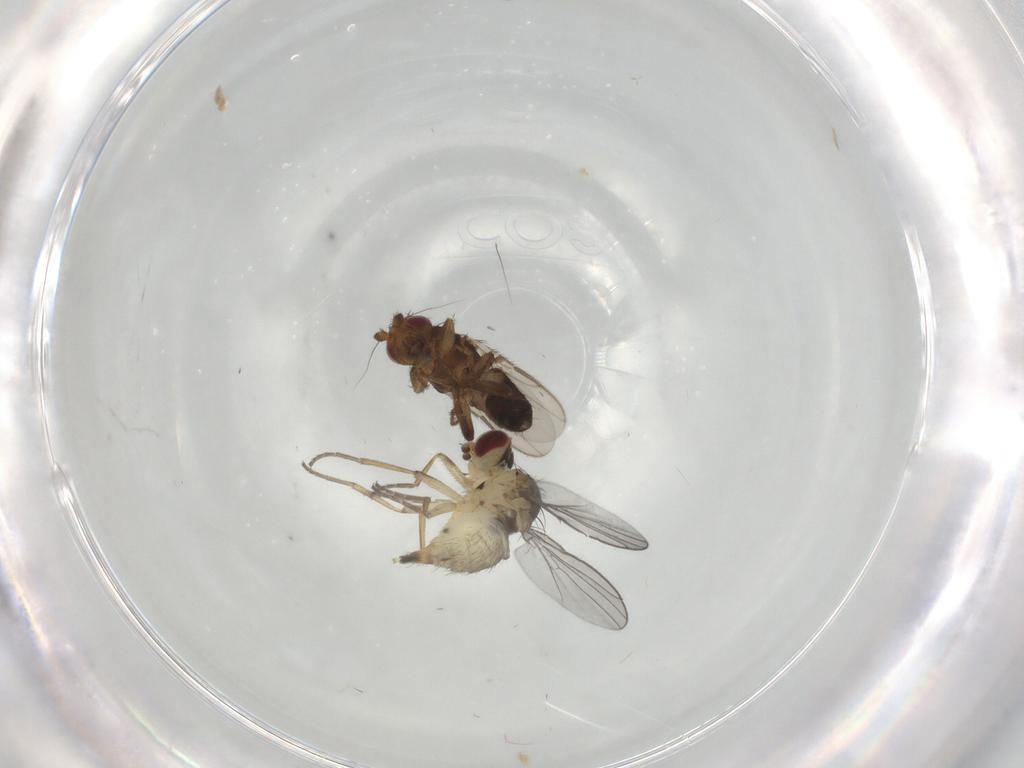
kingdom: Animalia
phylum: Arthropoda
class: Insecta
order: Diptera
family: Agromyzidae
